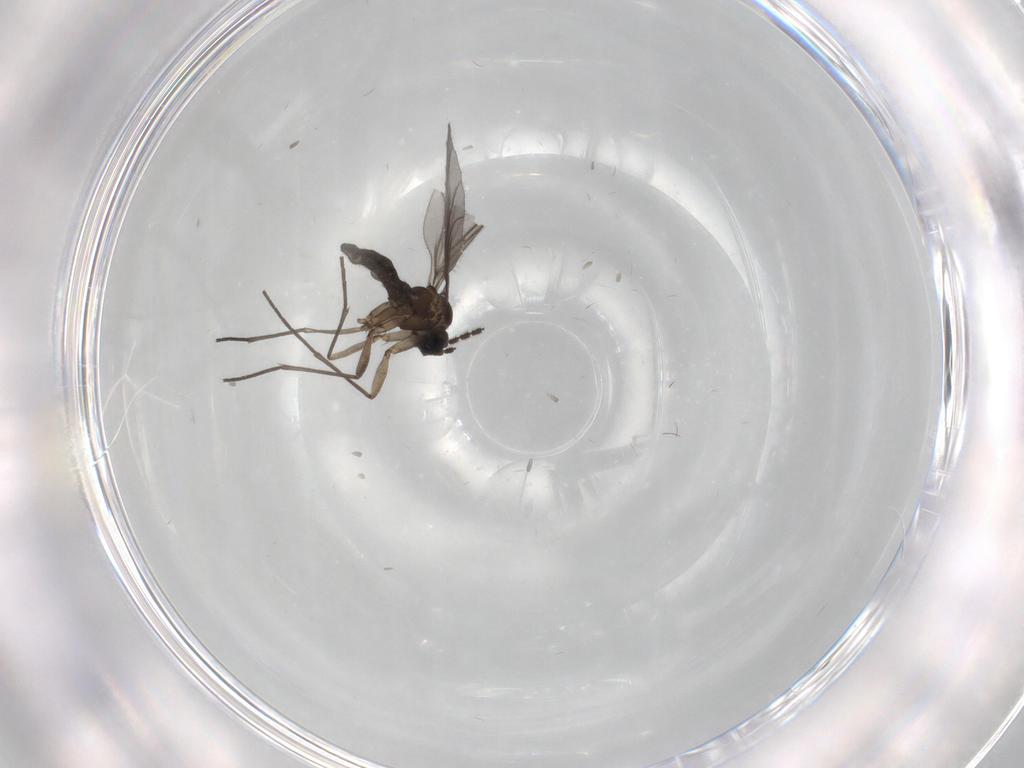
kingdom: Animalia
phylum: Arthropoda
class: Insecta
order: Diptera
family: Sciaridae
